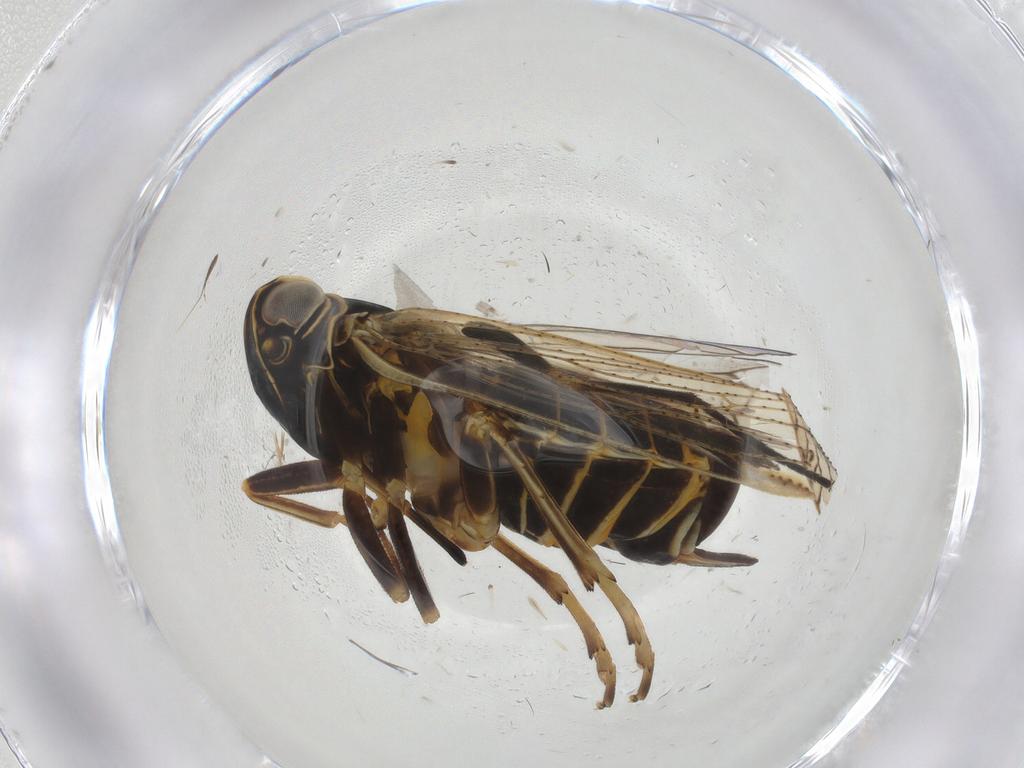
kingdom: Animalia
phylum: Arthropoda
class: Insecta
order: Hemiptera
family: Cixiidae
